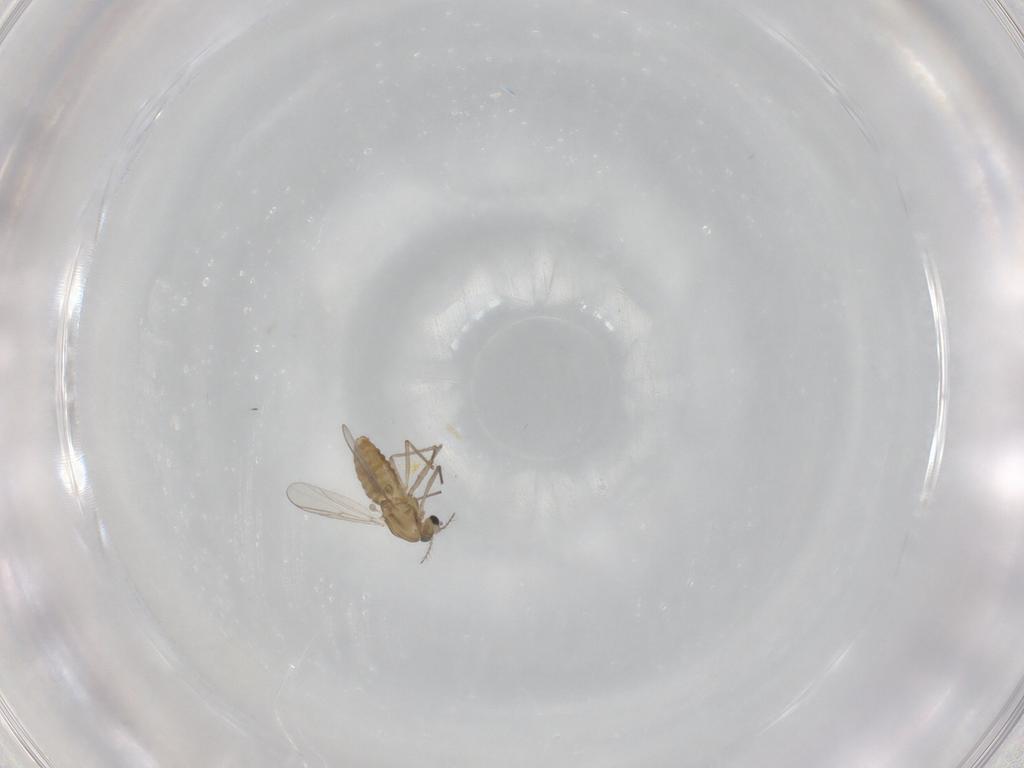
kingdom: Animalia
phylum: Arthropoda
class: Insecta
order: Diptera
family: Chironomidae
